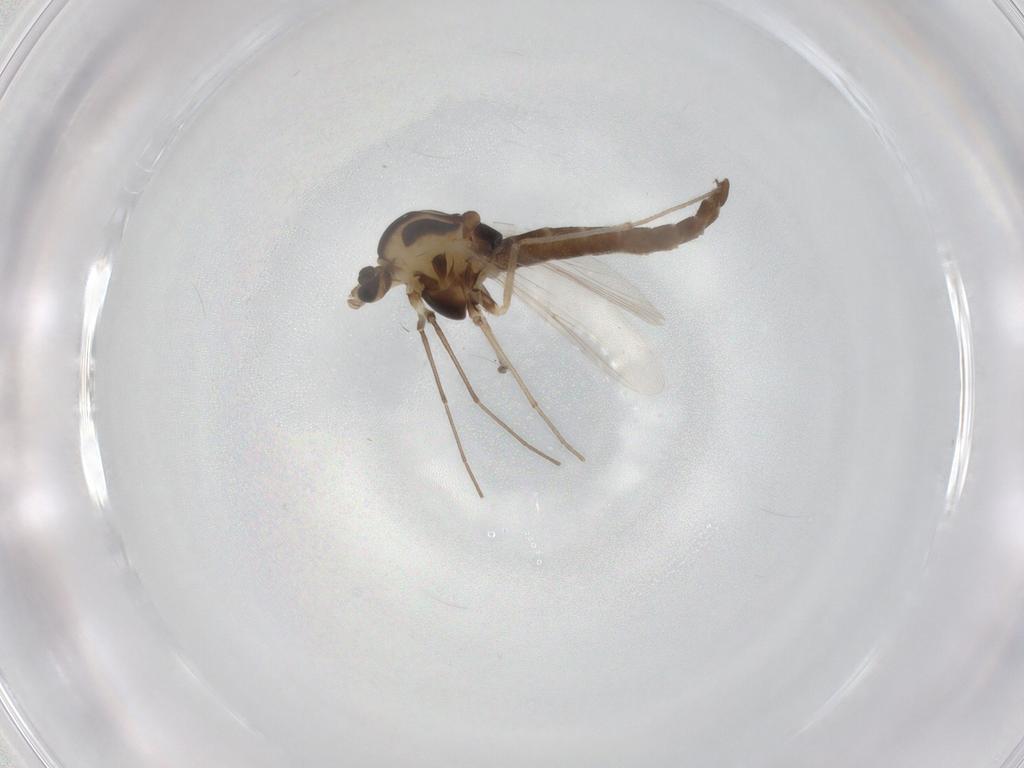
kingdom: Animalia
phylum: Arthropoda
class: Insecta
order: Diptera
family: Chironomidae
